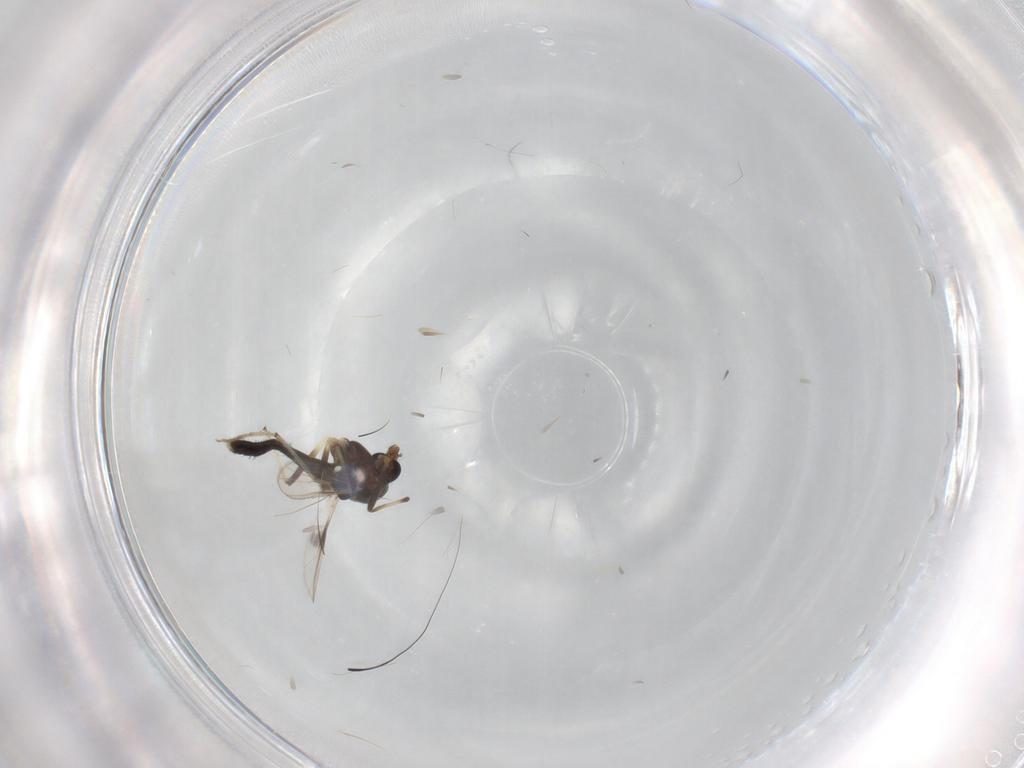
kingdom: Animalia
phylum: Arthropoda
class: Insecta
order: Diptera
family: Chironomidae
